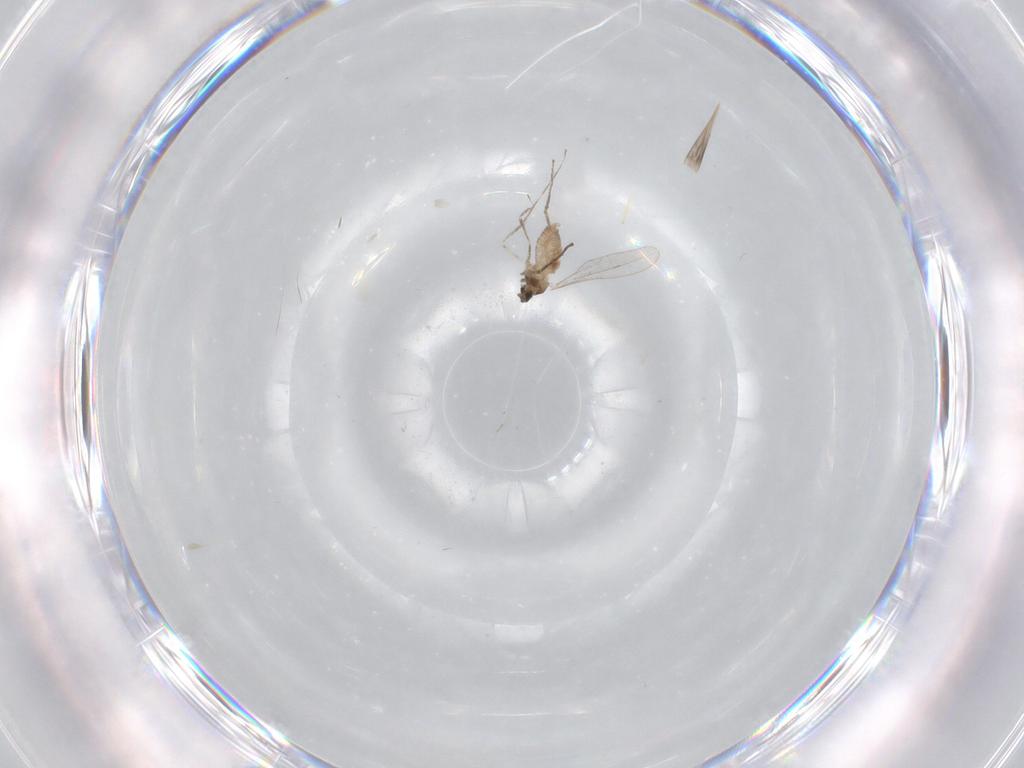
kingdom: Animalia
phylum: Arthropoda
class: Insecta
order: Diptera
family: Cecidomyiidae
